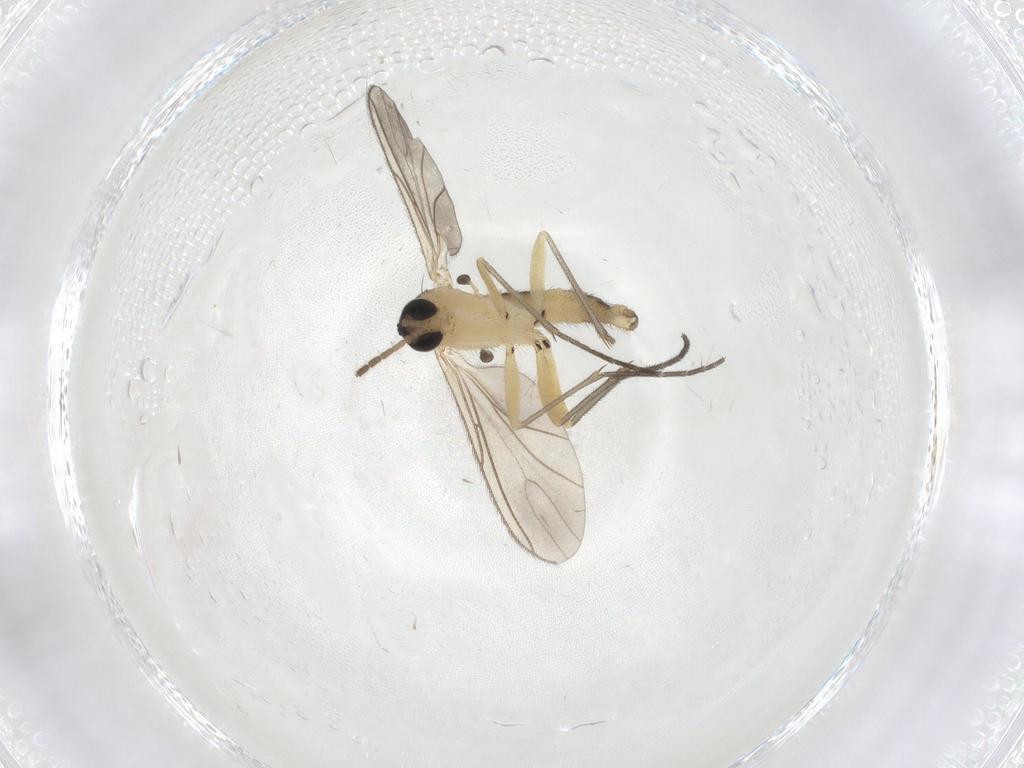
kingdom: Animalia
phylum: Arthropoda
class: Insecta
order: Diptera
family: Sciaridae
